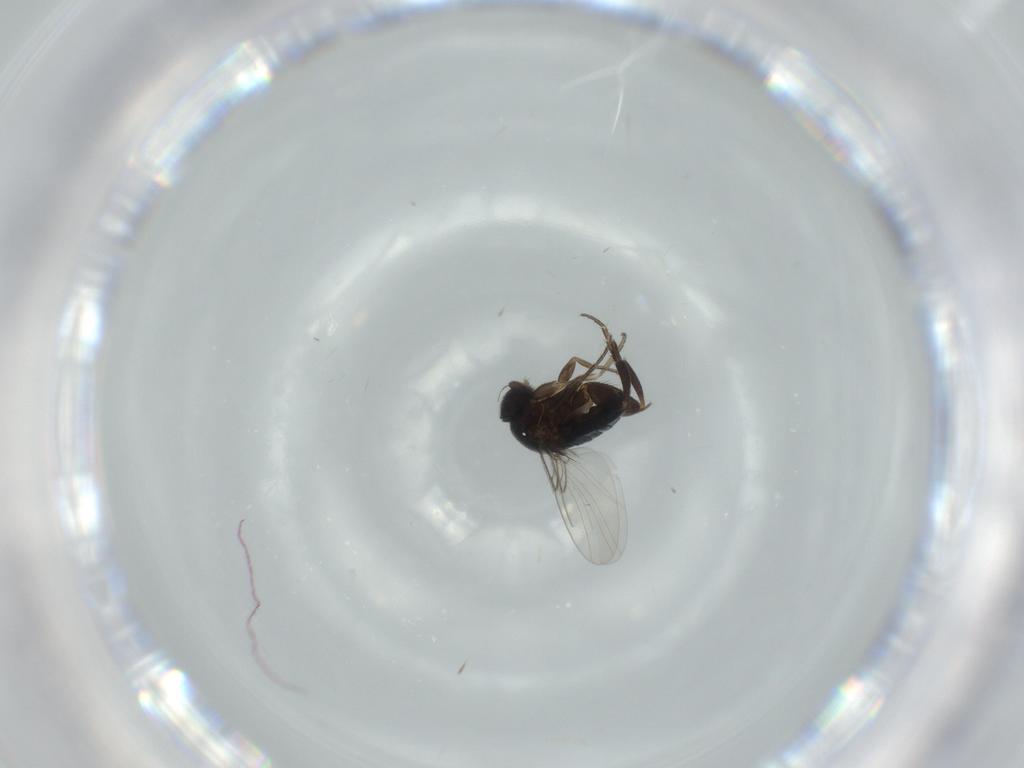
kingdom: Animalia
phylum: Arthropoda
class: Insecta
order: Diptera
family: Phoridae
